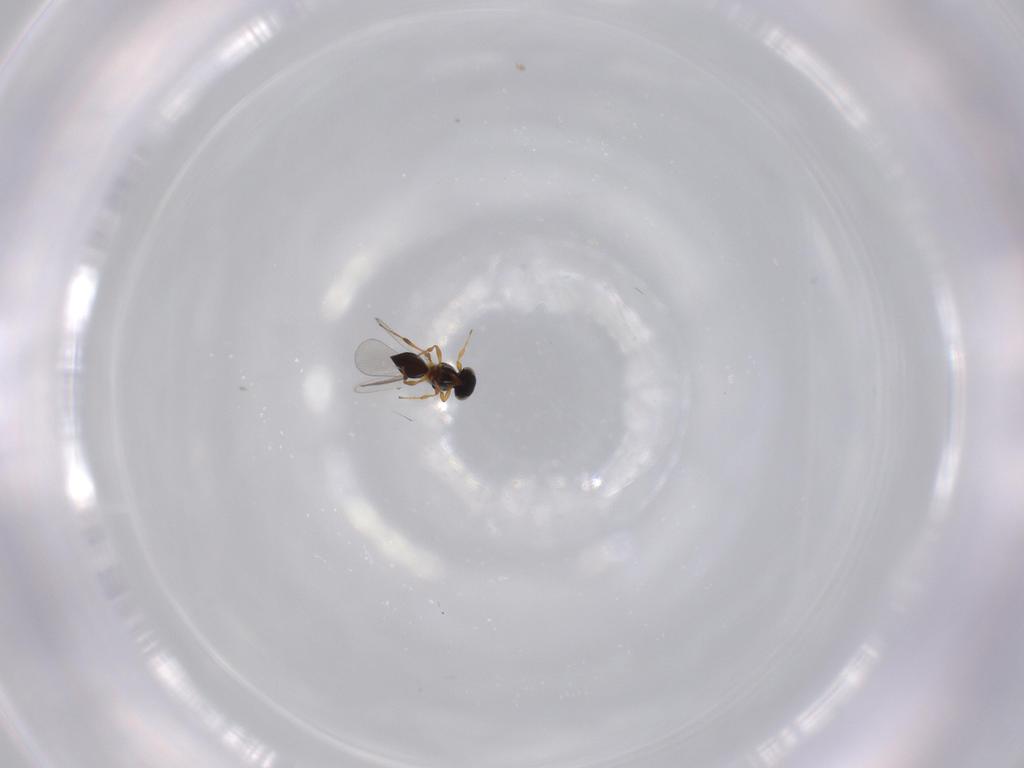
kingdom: Animalia
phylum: Arthropoda
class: Insecta
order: Hymenoptera
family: Platygastridae
